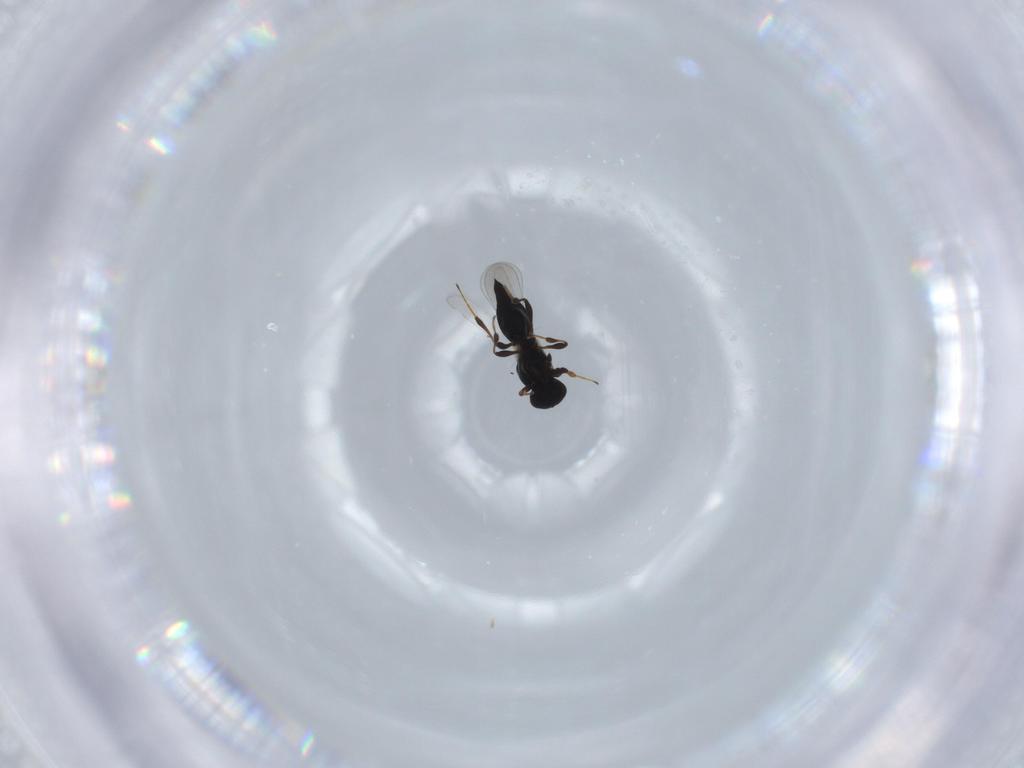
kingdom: Animalia
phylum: Arthropoda
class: Insecta
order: Hymenoptera
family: Platygastridae
